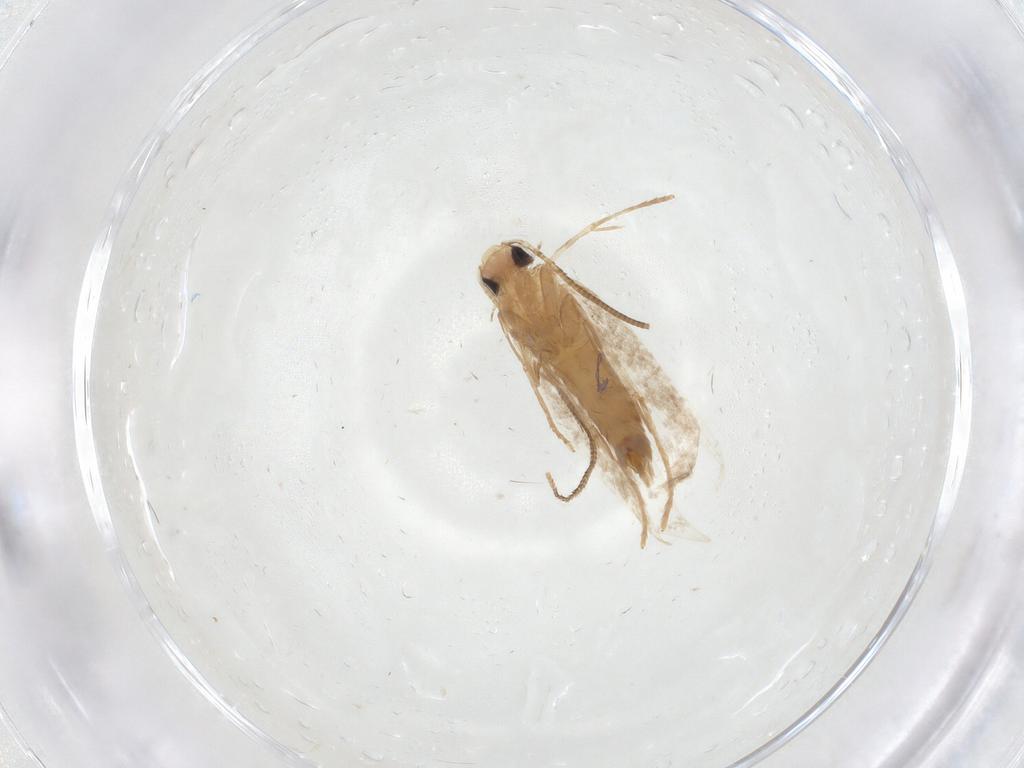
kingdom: Animalia
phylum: Arthropoda
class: Insecta
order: Lepidoptera
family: Tineidae
